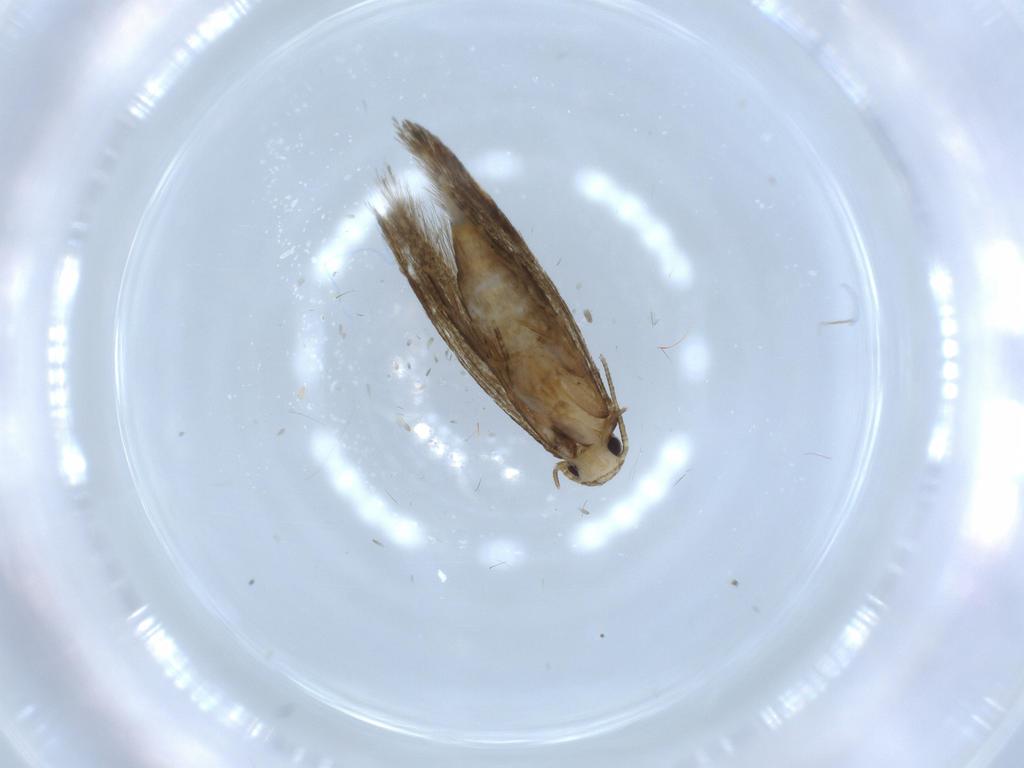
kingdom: Animalia
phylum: Arthropoda
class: Insecta
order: Lepidoptera
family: Tineidae
